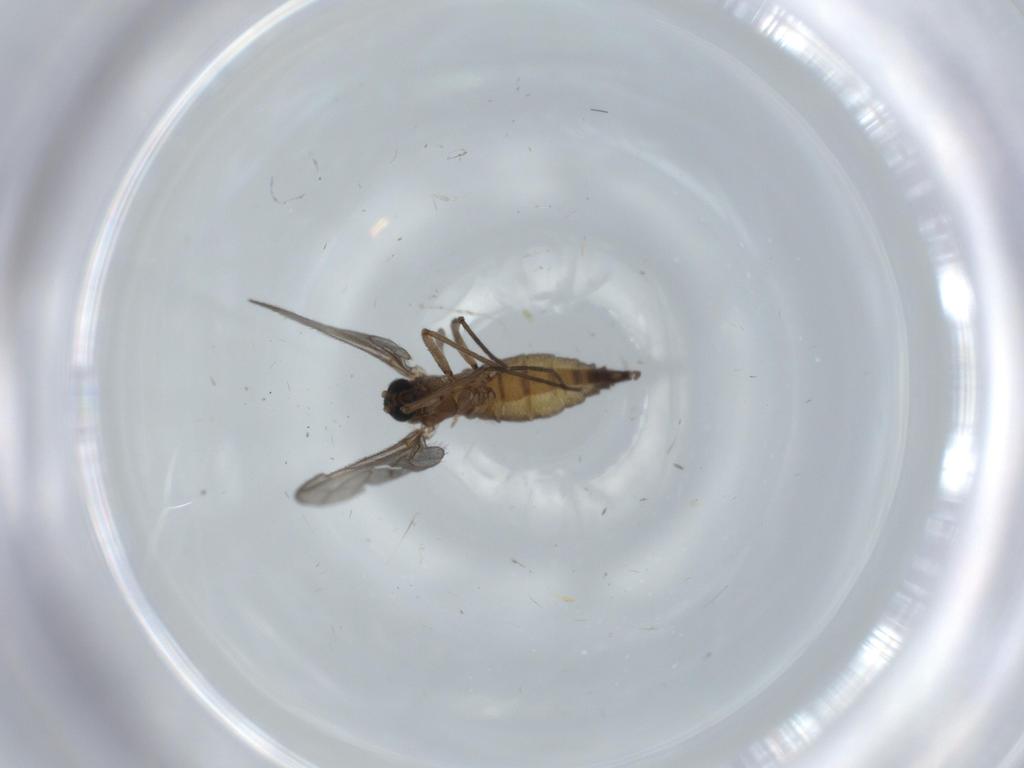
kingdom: Animalia
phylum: Arthropoda
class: Insecta
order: Diptera
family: Sciaridae
